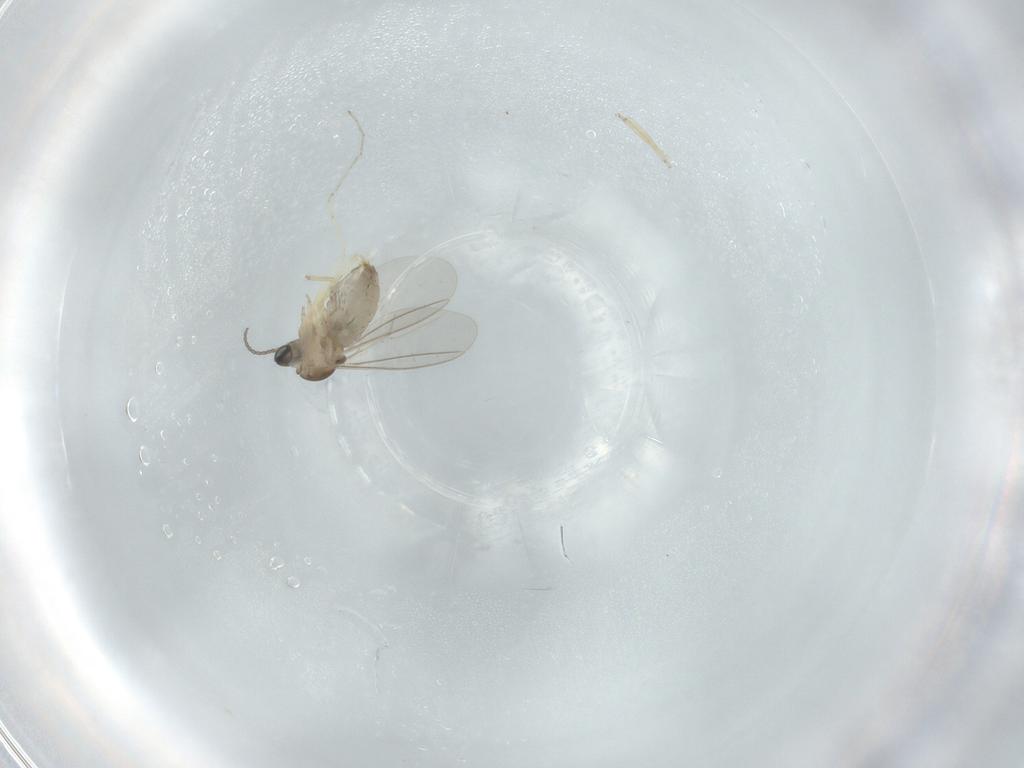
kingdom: Animalia
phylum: Arthropoda
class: Insecta
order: Diptera
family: Cecidomyiidae
